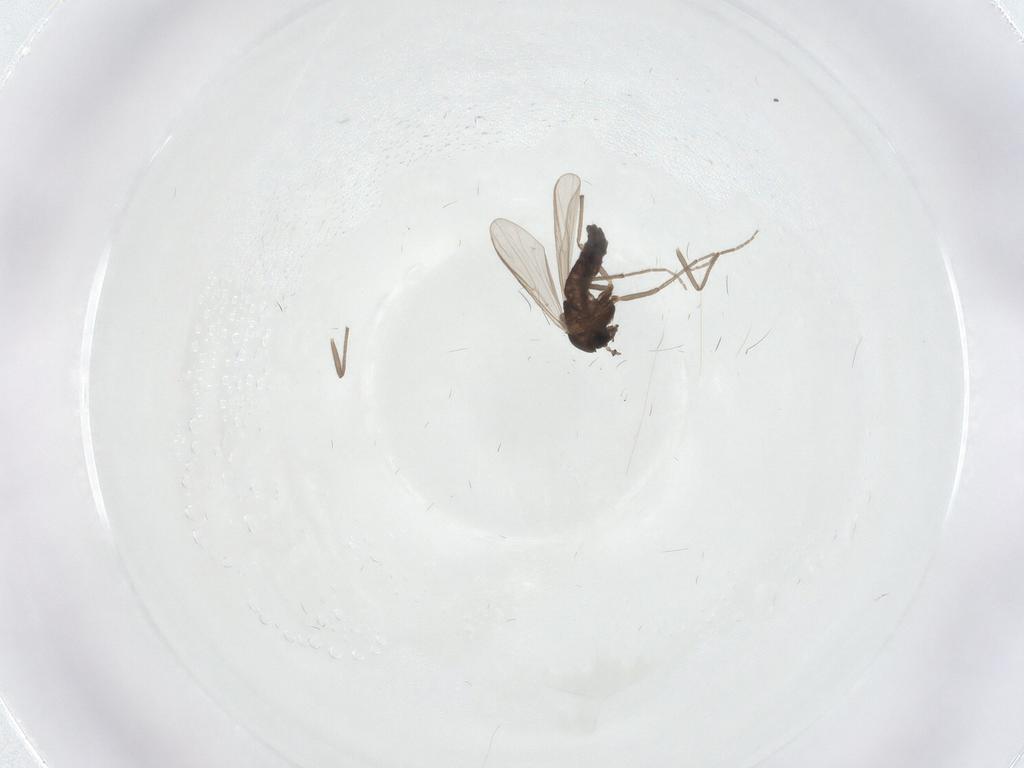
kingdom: Animalia
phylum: Arthropoda
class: Insecta
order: Diptera
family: Chironomidae
